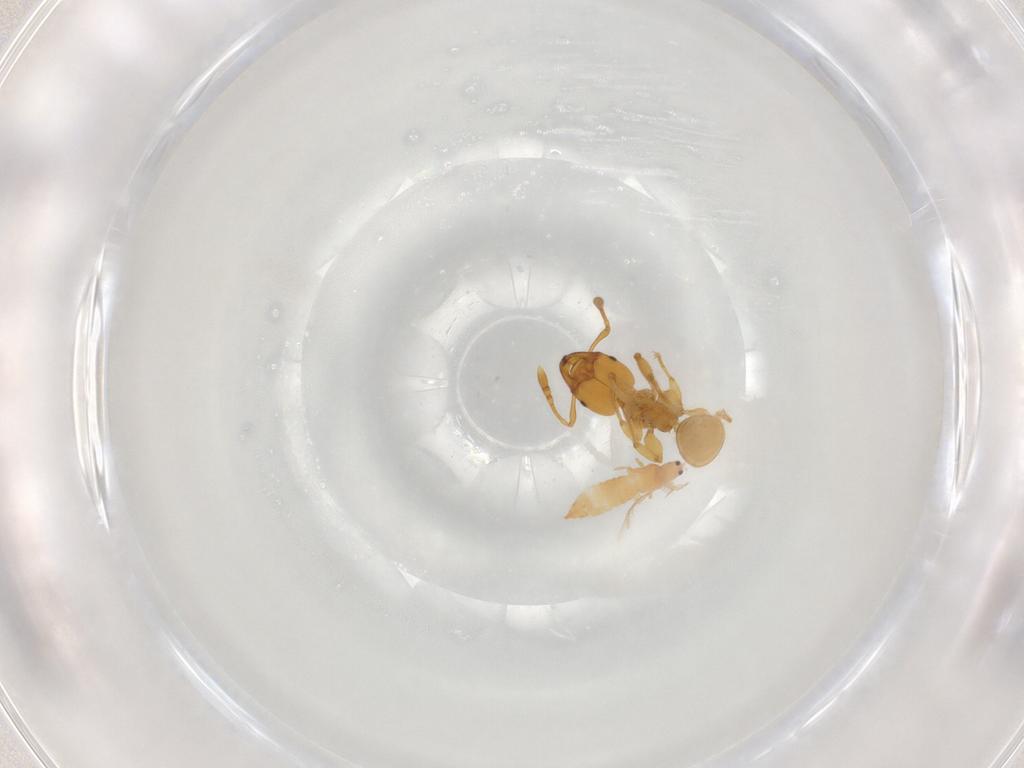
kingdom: Animalia
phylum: Arthropoda
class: Insecta
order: Hymenoptera
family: Formicidae
